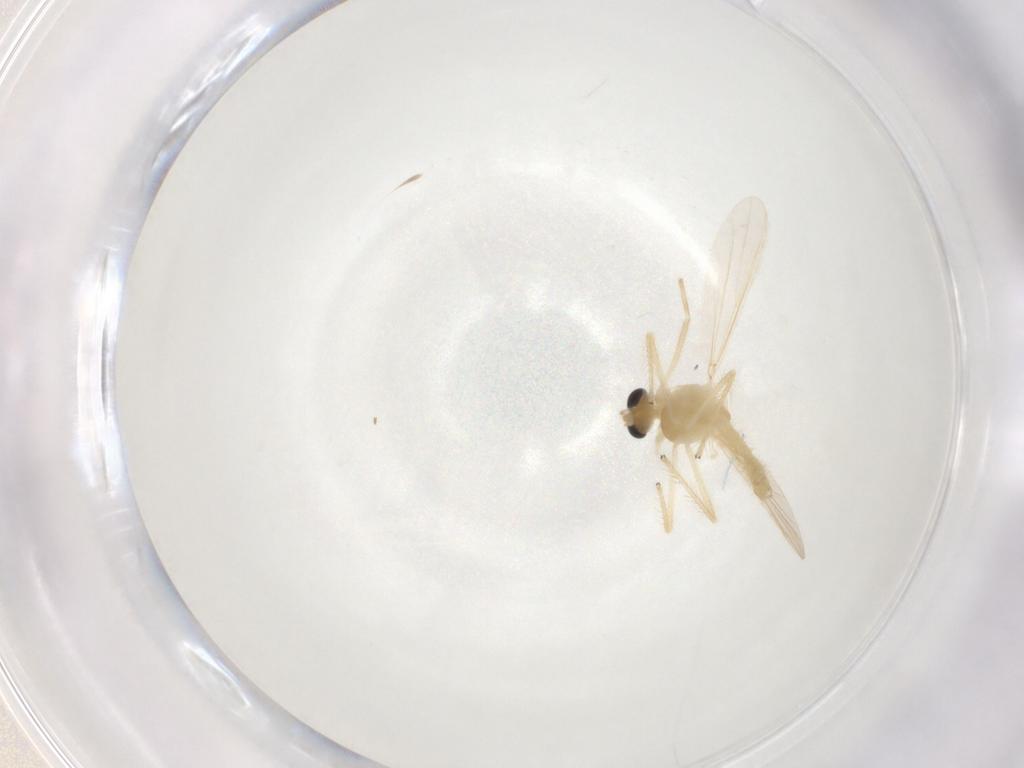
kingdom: Animalia
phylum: Arthropoda
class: Insecta
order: Diptera
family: Chironomidae
